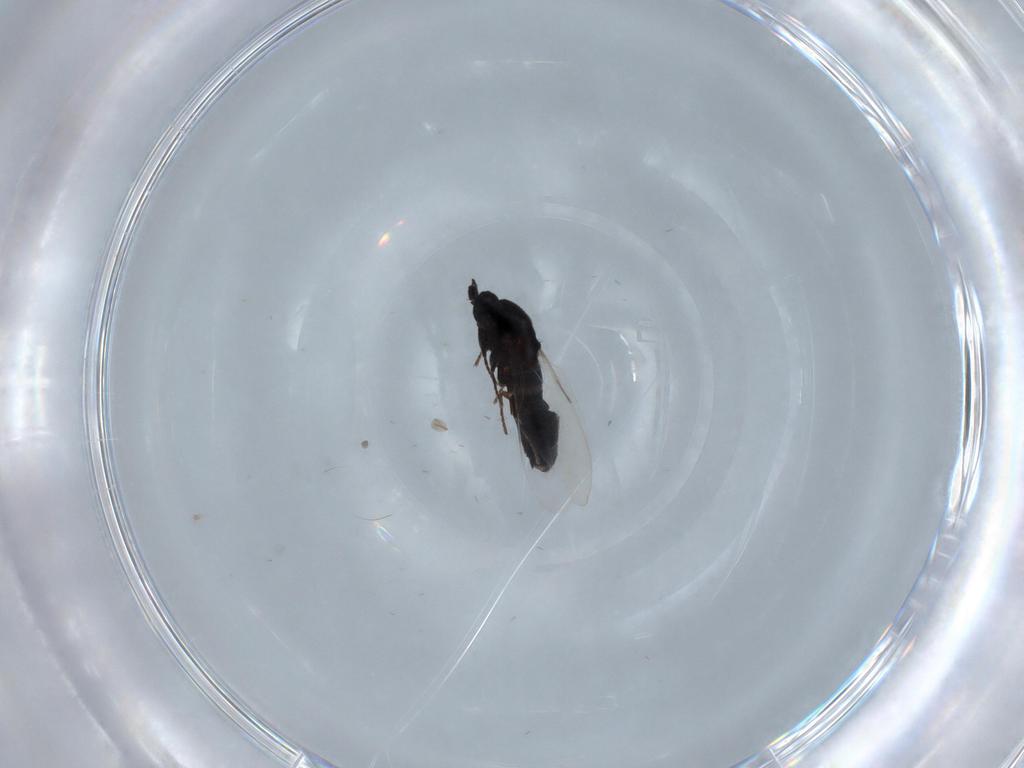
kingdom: Animalia
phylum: Arthropoda
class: Insecta
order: Diptera
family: Scatopsidae
